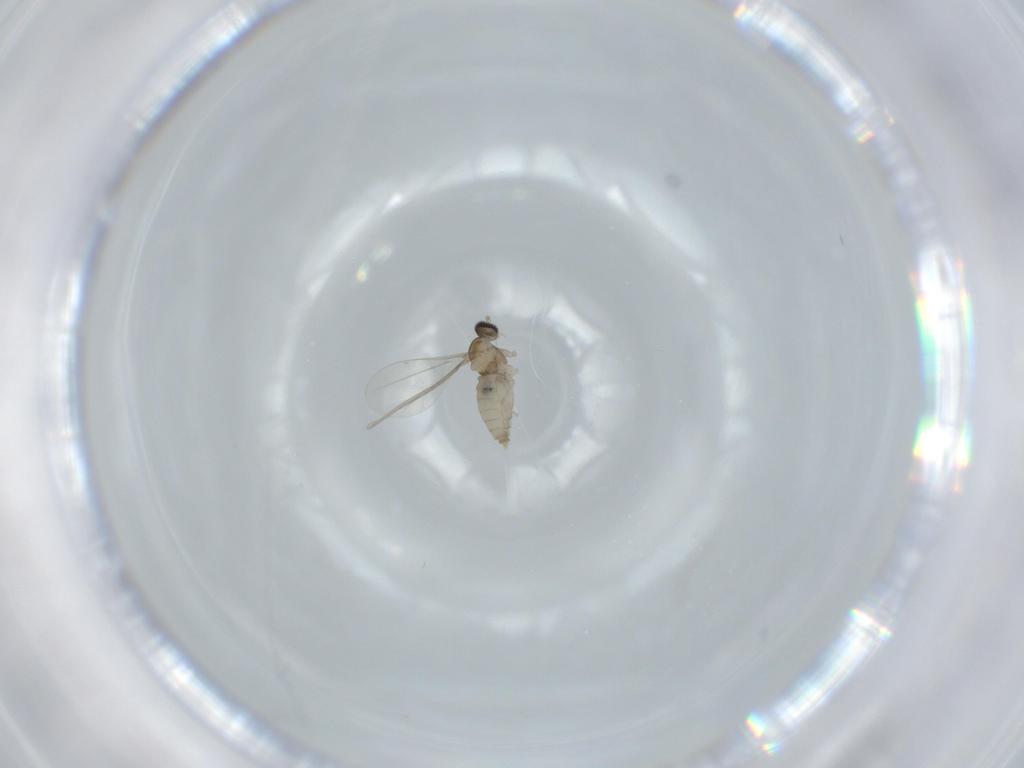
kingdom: Animalia
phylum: Arthropoda
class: Insecta
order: Diptera
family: Cecidomyiidae
